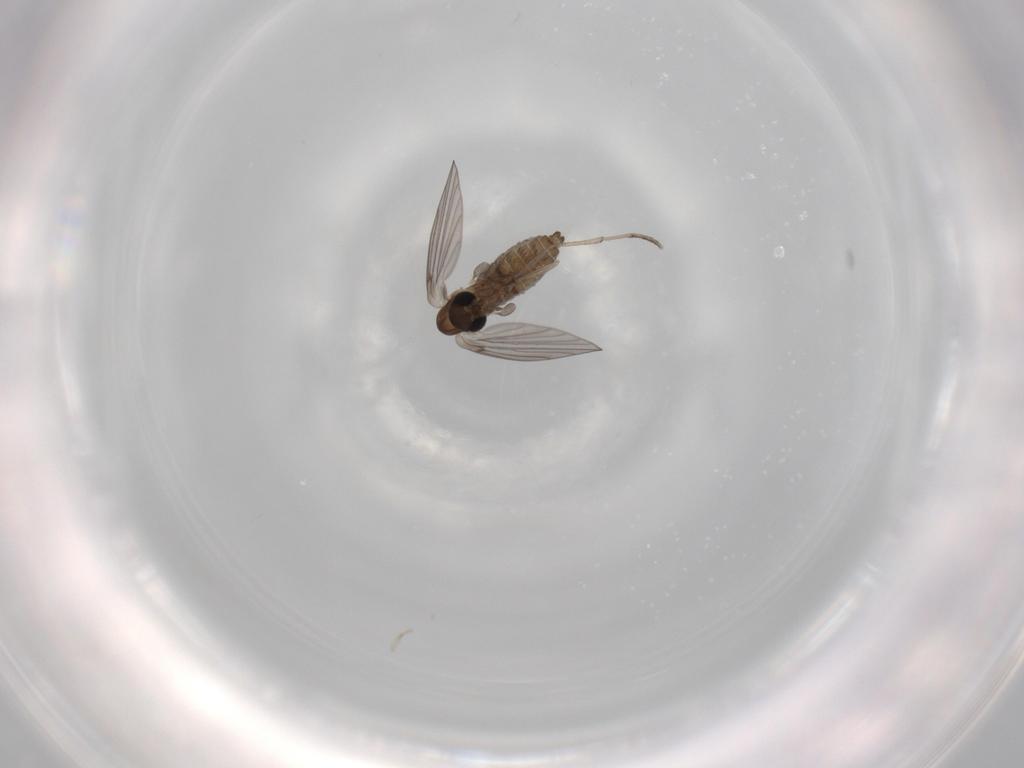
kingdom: Animalia
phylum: Arthropoda
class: Insecta
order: Diptera
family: Psychodidae
